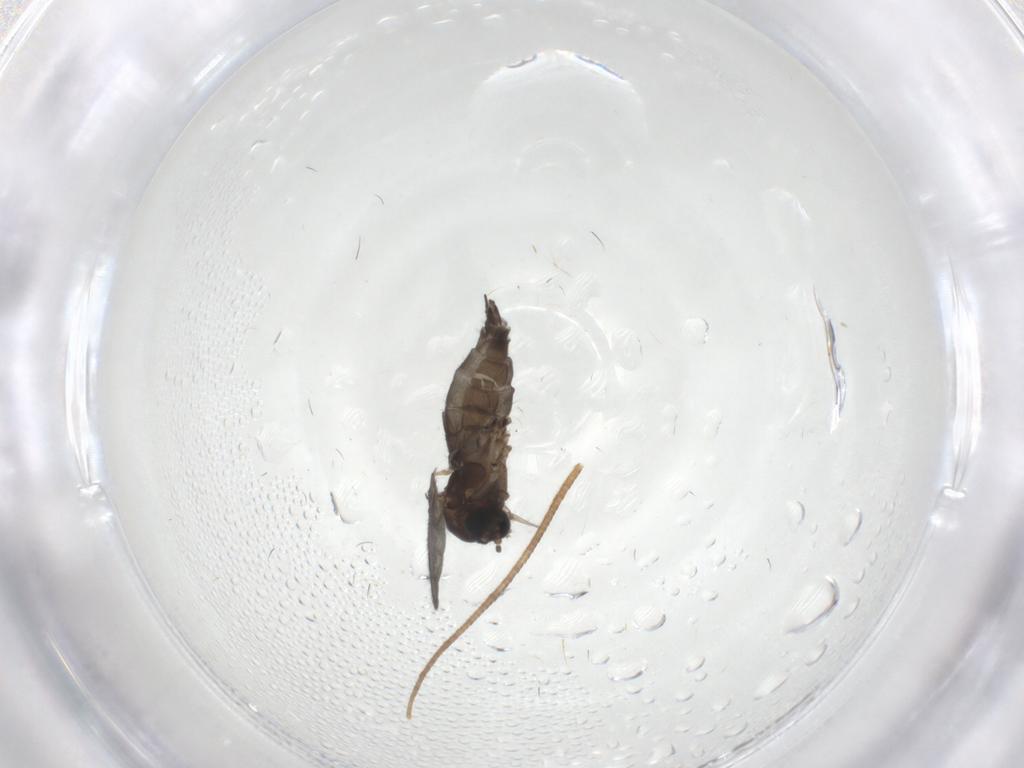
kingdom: Animalia
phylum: Arthropoda
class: Insecta
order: Diptera
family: Sciaridae
